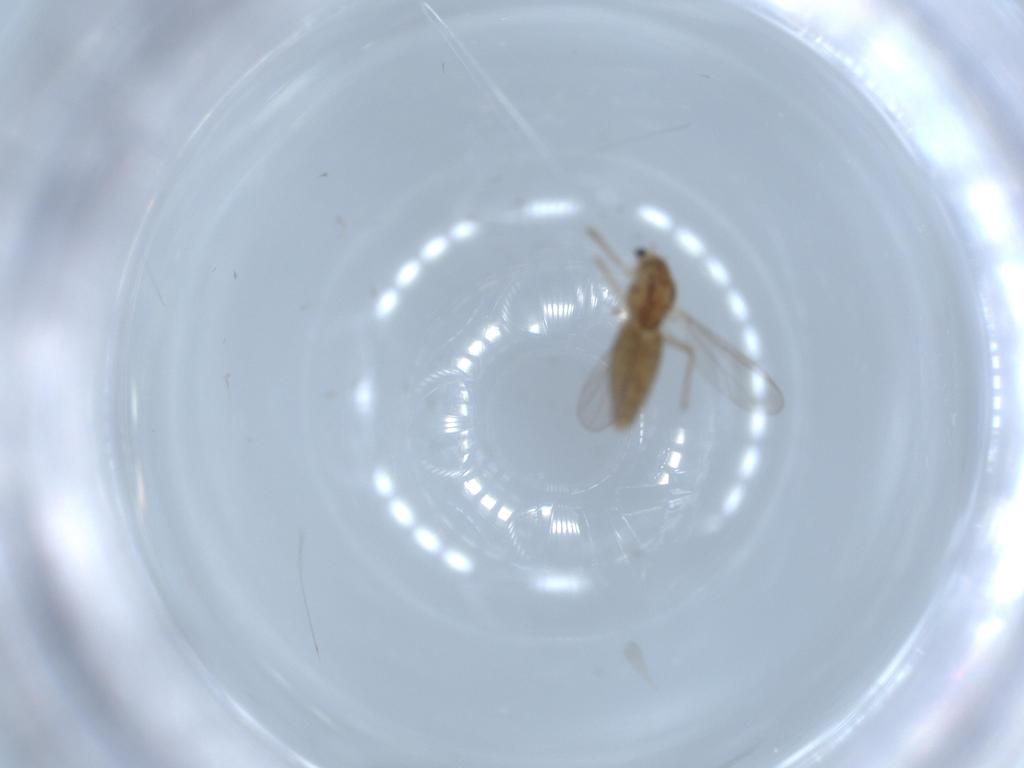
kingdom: Animalia
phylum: Arthropoda
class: Insecta
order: Diptera
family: Chironomidae
